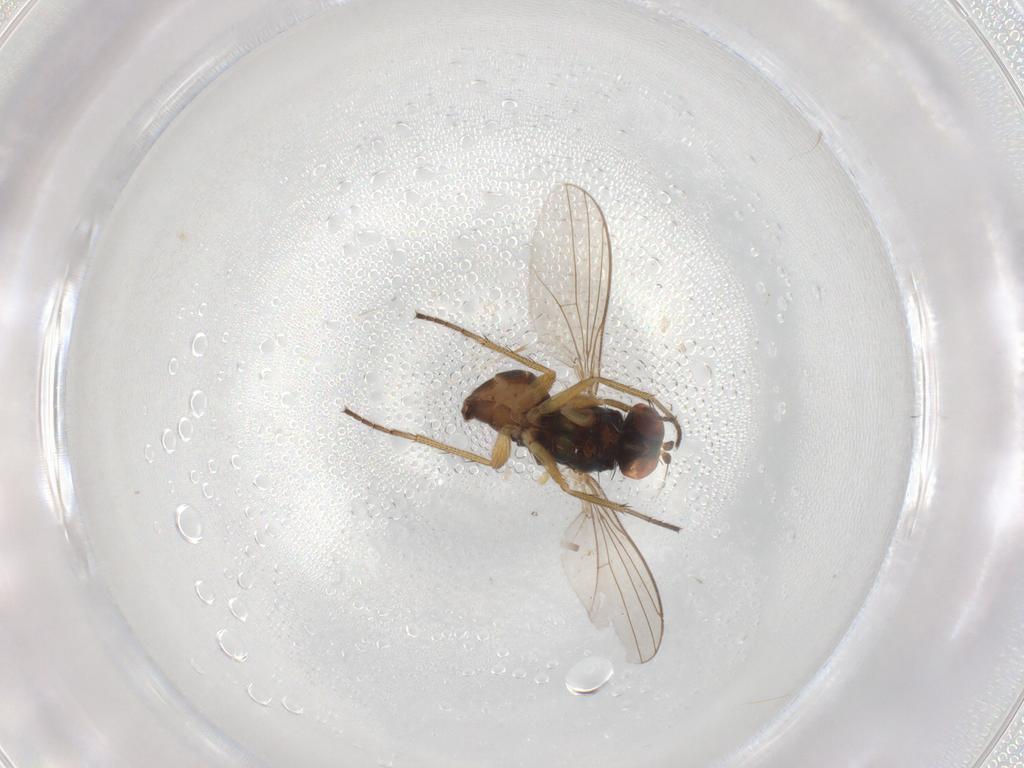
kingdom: Animalia
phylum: Arthropoda
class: Insecta
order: Diptera
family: Dolichopodidae
